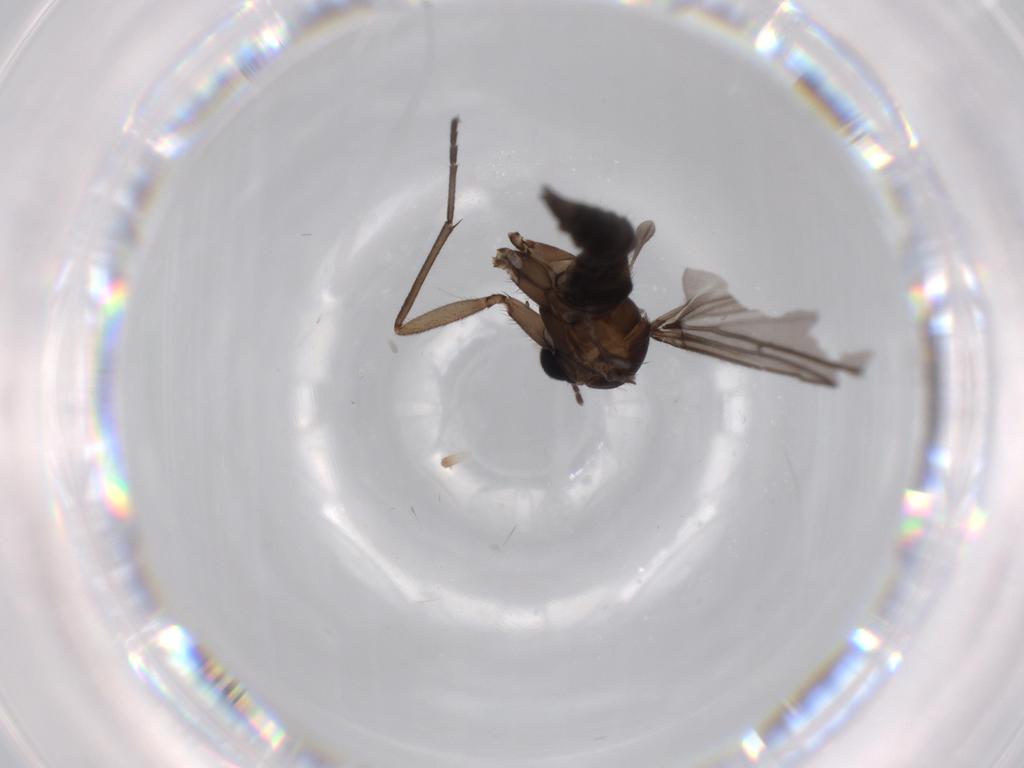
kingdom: Animalia
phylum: Arthropoda
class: Insecta
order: Diptera
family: Sciaridae
